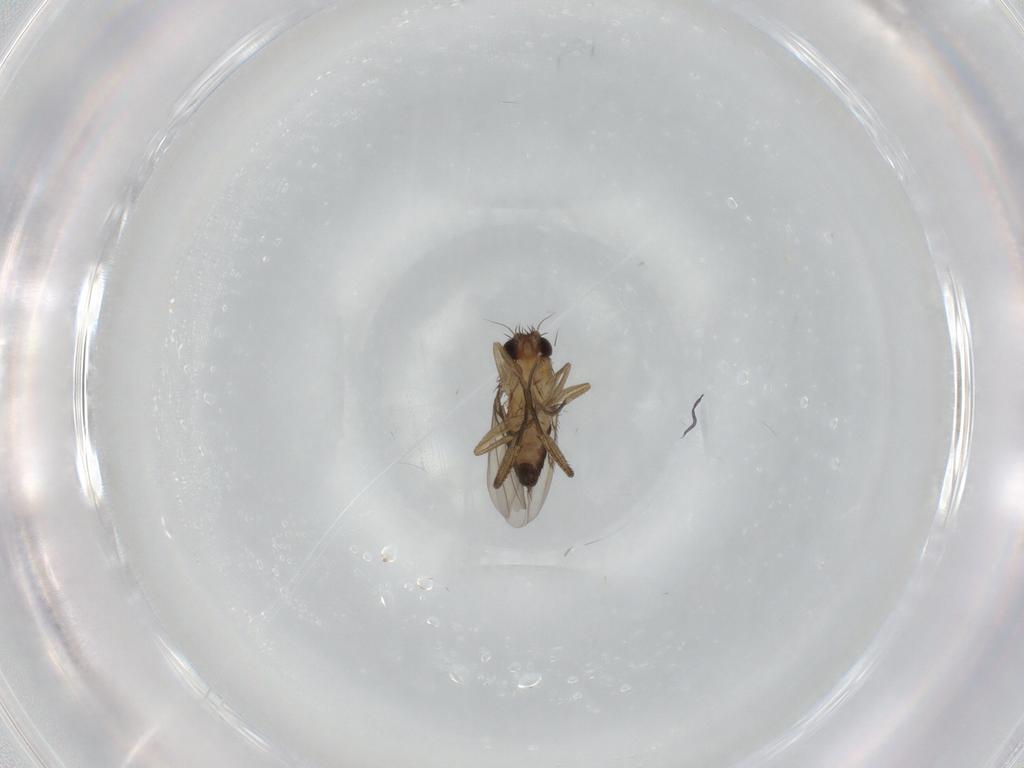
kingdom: Animalia
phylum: Arthropoda
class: Insecta
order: Diptera
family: Phoridae
